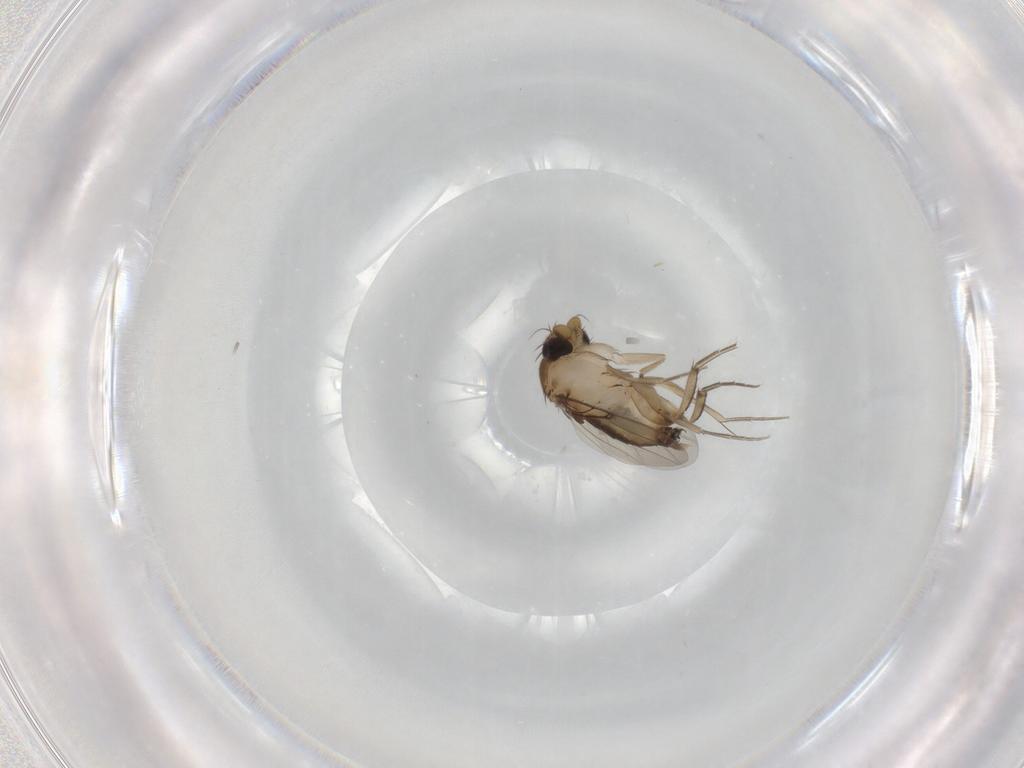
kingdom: Animalia
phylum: Arthropoda
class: Insecta
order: Diptera
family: Phoridae
